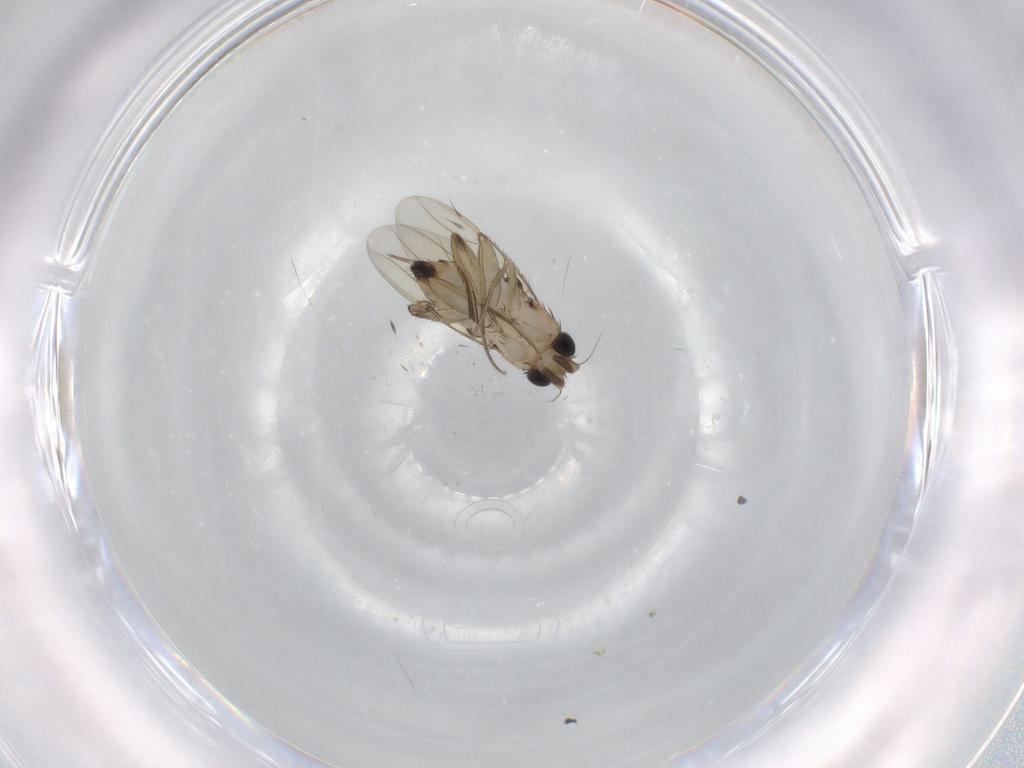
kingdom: Animalia
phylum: Arthropoda
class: Insecta
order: Diptera
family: Phoridae
